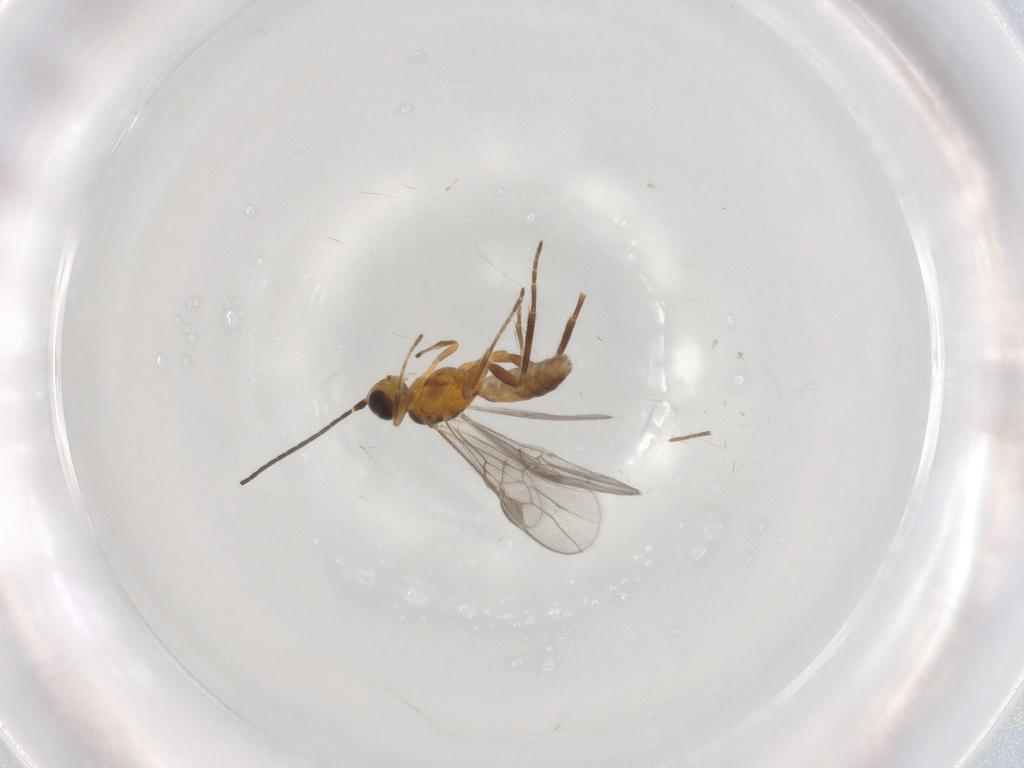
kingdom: Animalia
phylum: Arthropoda
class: Insecta
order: Hymenoptera
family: Braconidae
